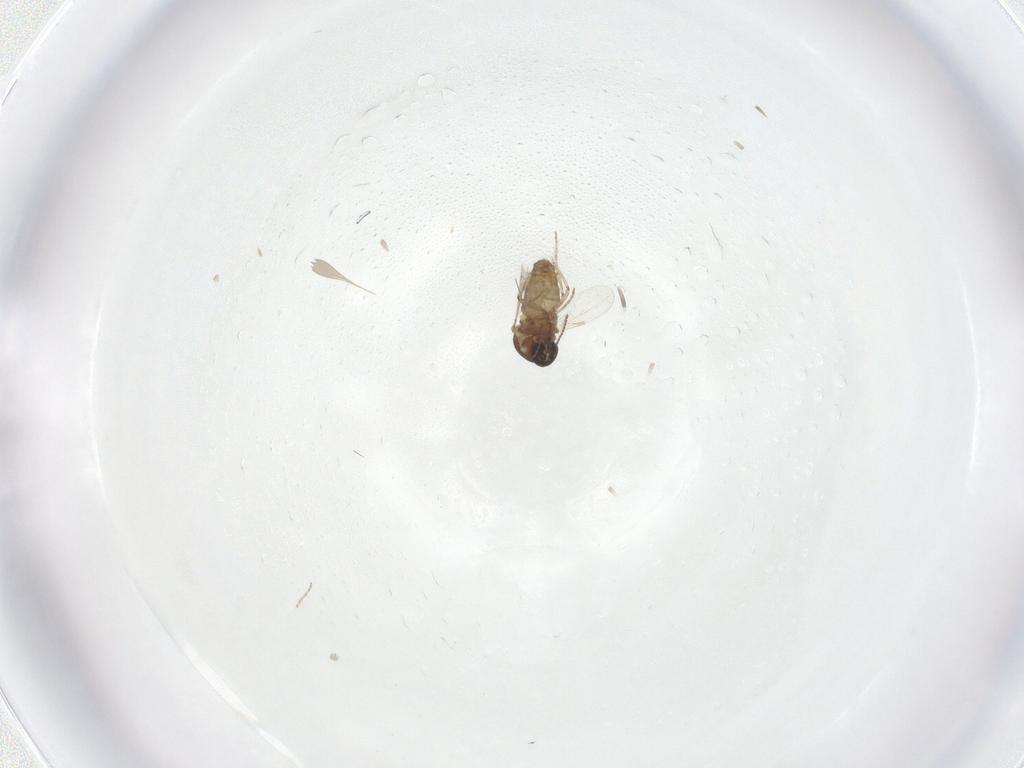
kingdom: Animalia
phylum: Arthropoda
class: Insecta
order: Diptera
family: Ceratopogonidae
